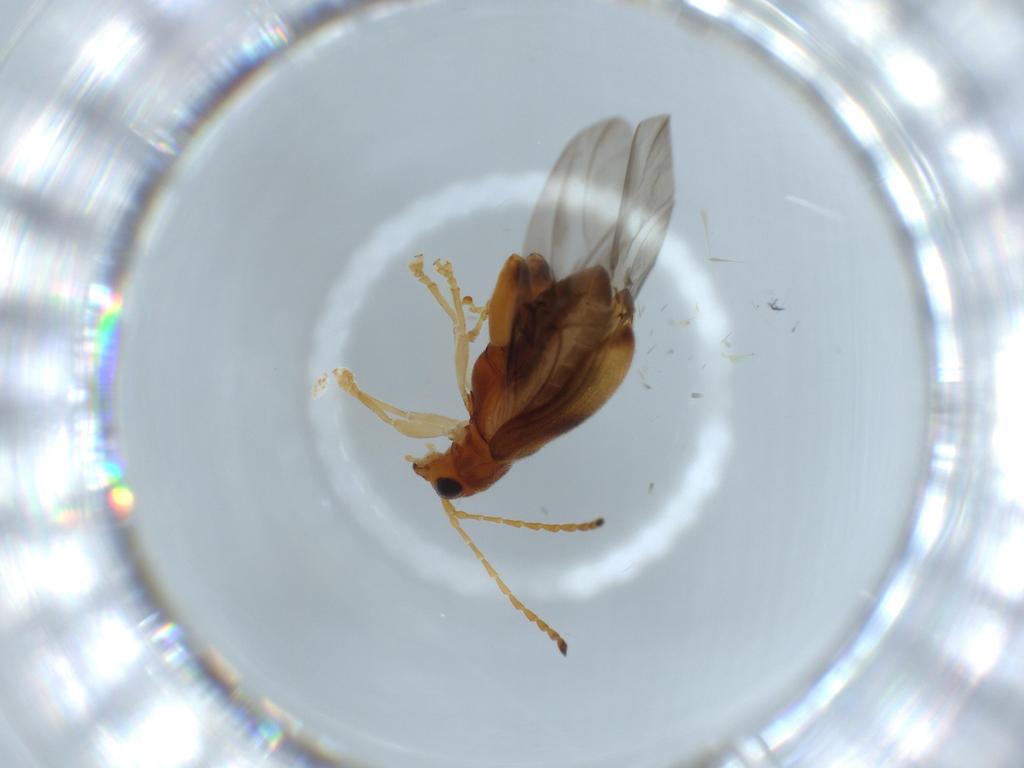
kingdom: Animalia
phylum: Arthropoda
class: Insecta
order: Coleoptera
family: Chrysomelidae
